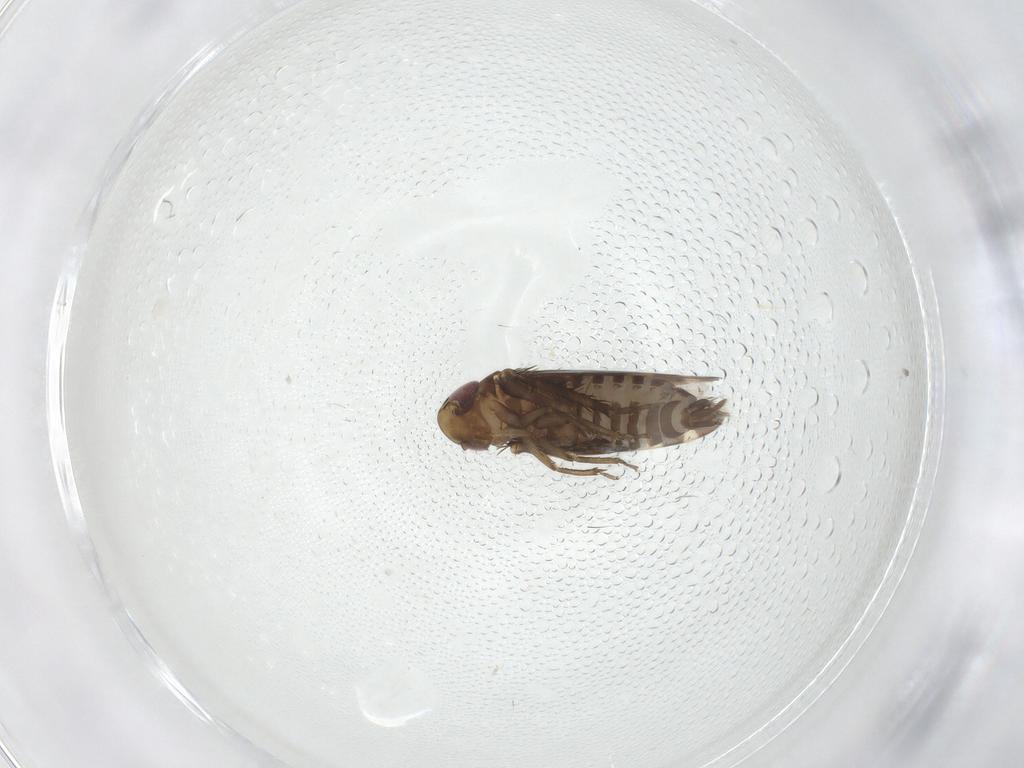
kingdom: Animalia
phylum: Arthropoda
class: Insecta
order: Hemiptera
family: Cicadellidae
